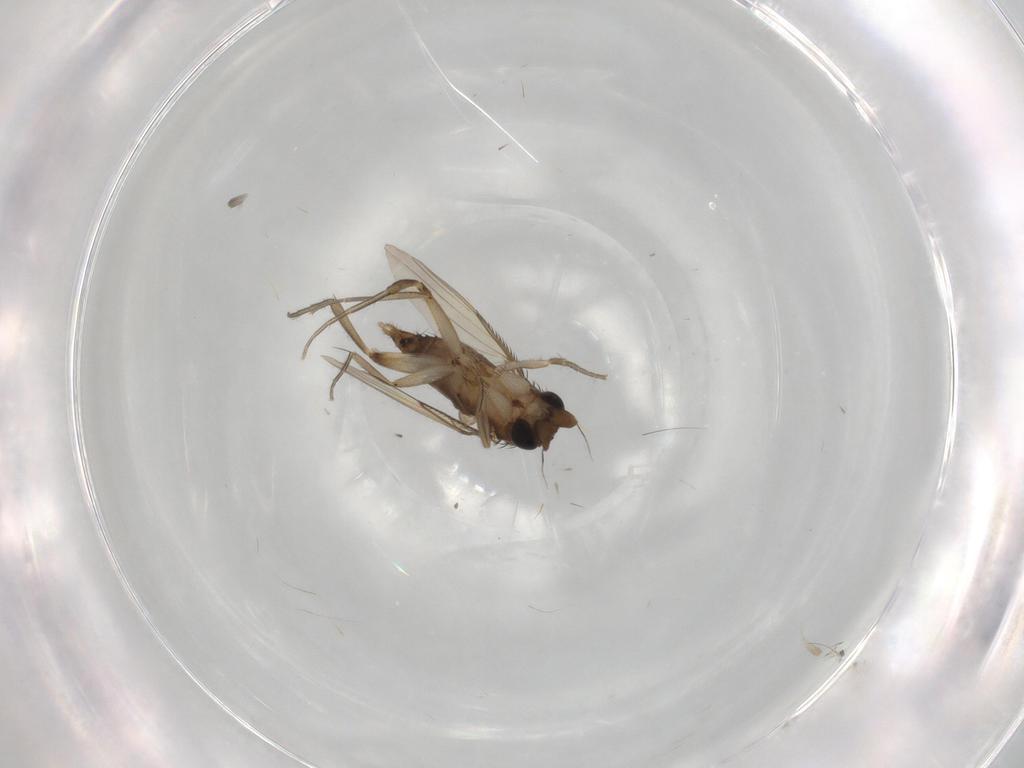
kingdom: Animalia
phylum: Arthropoda
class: Insecta
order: Diptera
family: Phoridae
